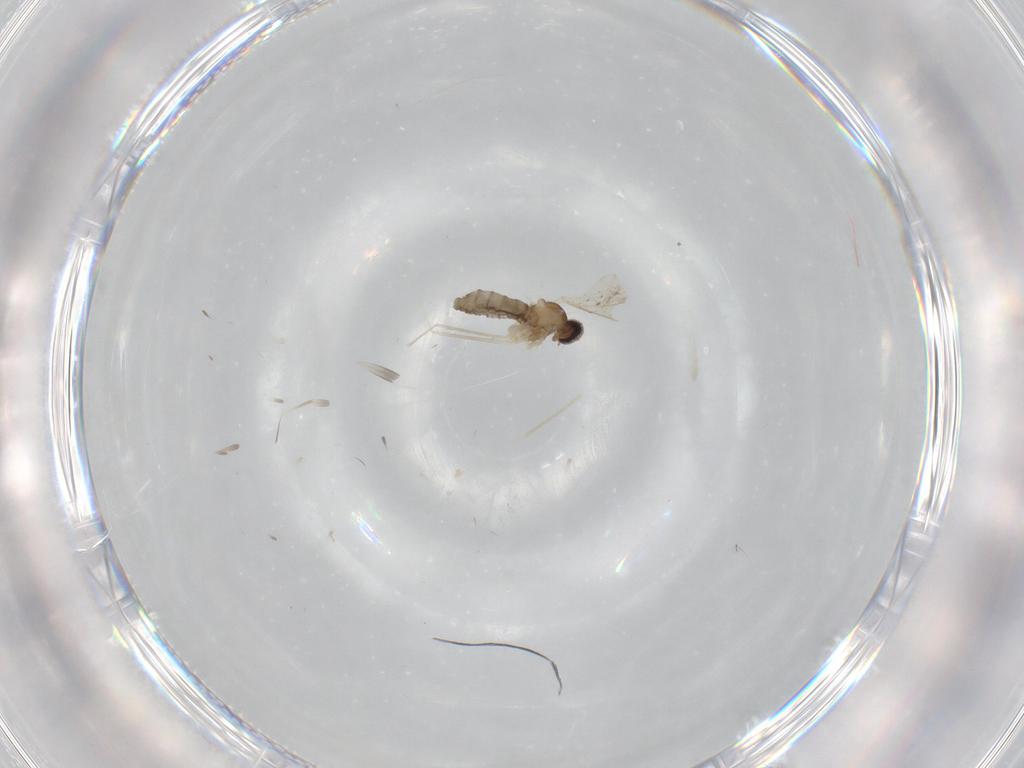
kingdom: Animalia
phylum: Arthropoda
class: Insecta
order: Diptera
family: Cecidomyiidae
